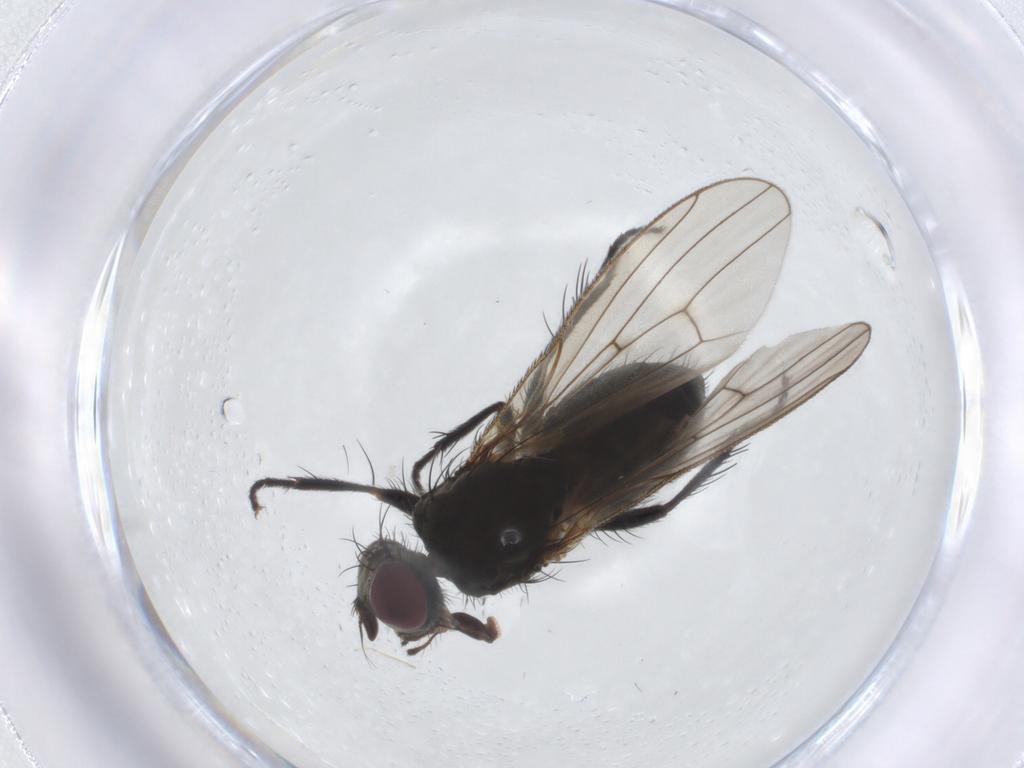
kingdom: Animalia
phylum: Arthropoda
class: Insecta
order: Diptera
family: Muscidae
